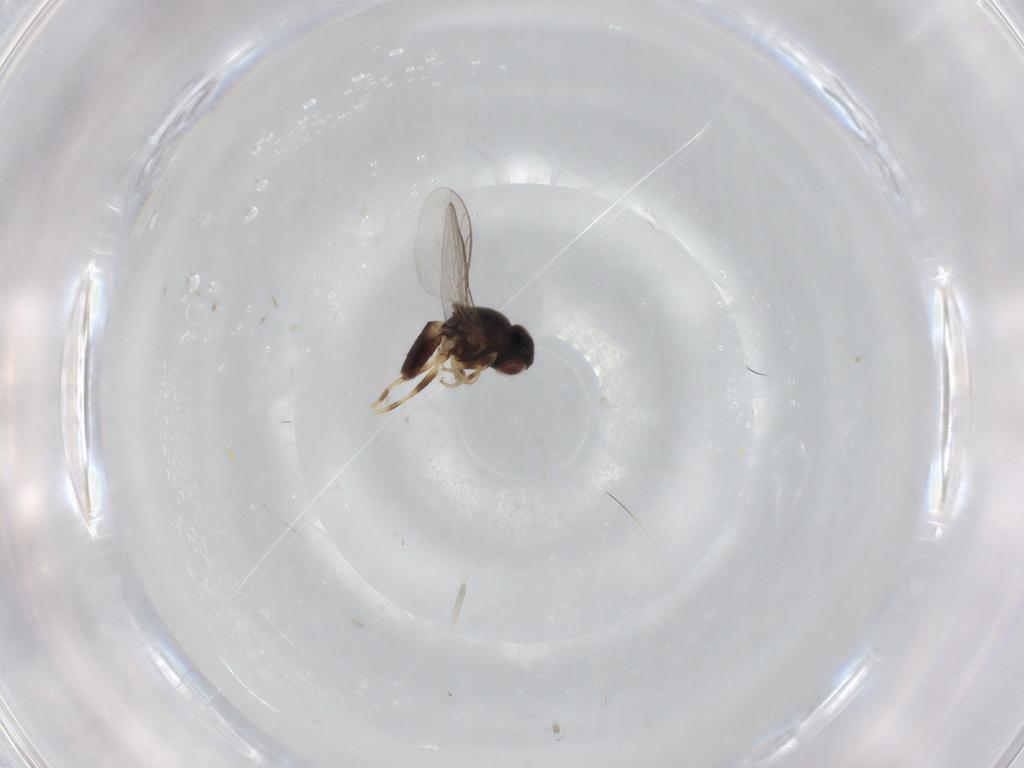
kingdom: Animalia
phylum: Arthropoda
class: Insecta
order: Diptera
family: Chloropidae
